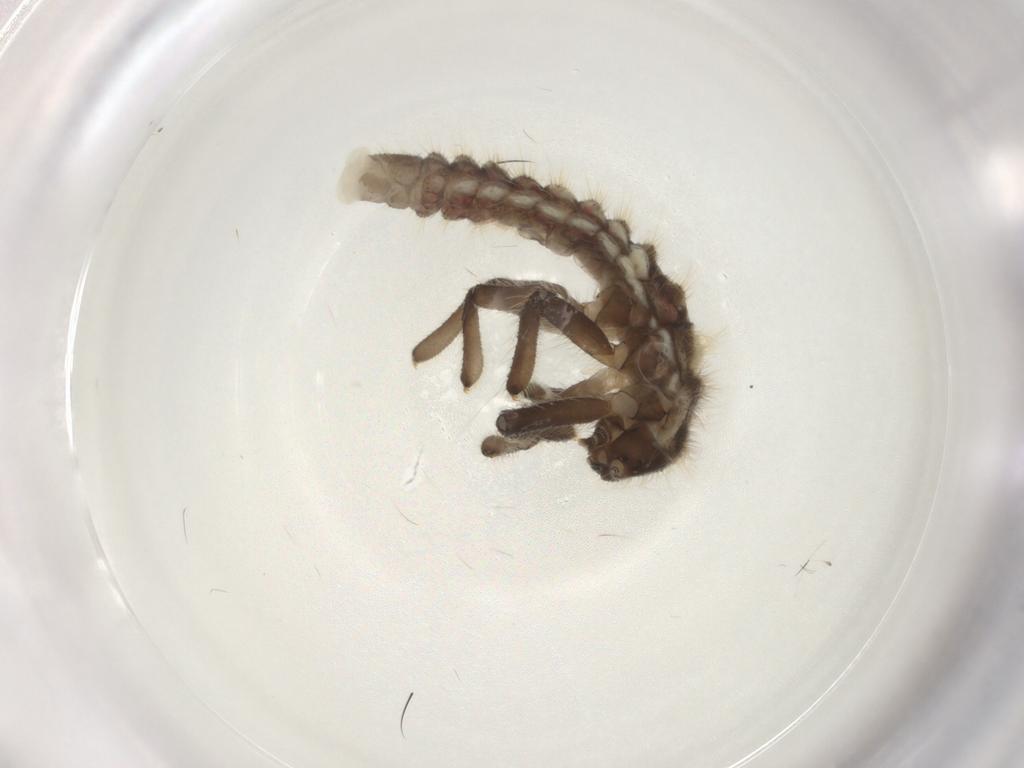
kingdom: Animalia
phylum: Arthropoda
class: Insecta
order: Coleoptera
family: Coccinellidae
